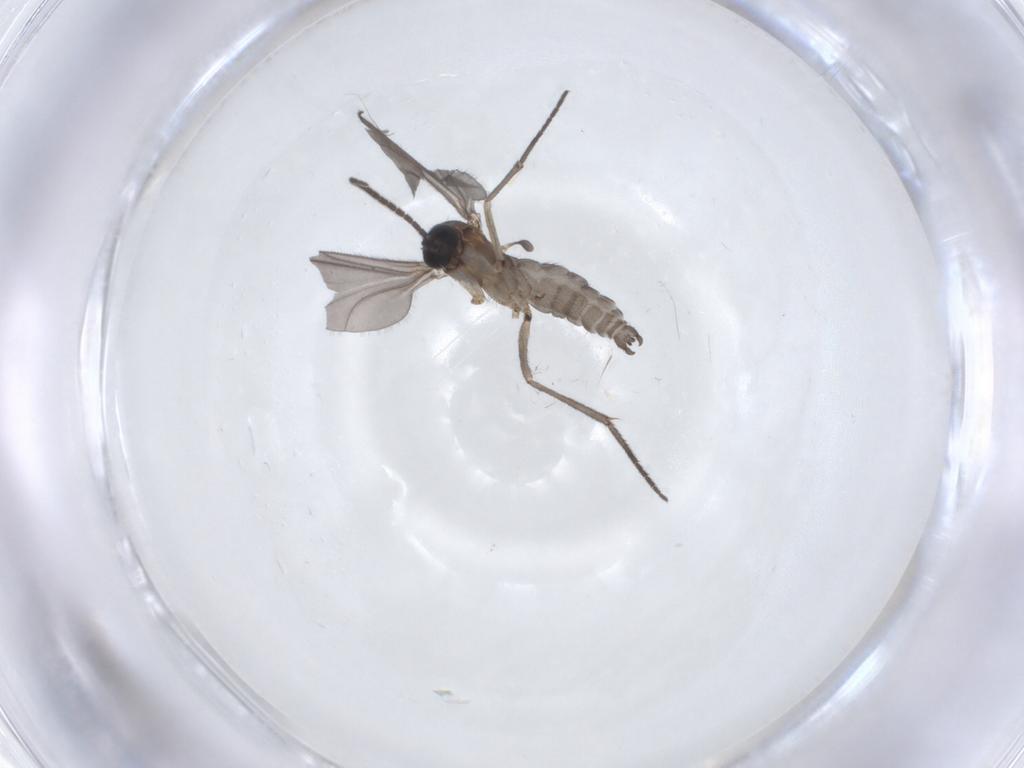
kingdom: Animalia
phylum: Arthropoda
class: Insecta
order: Diptera
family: Sciaridae
